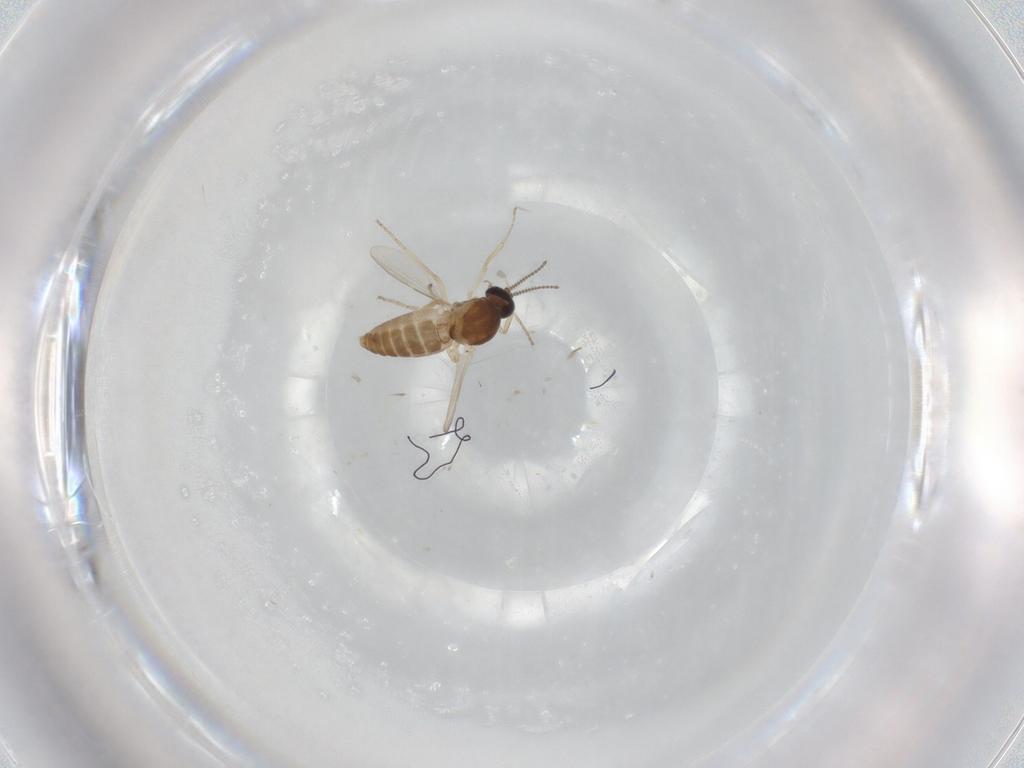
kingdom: Animalia
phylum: Arthropoda
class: Insecta
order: Diptera
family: Ceratopogonidae
